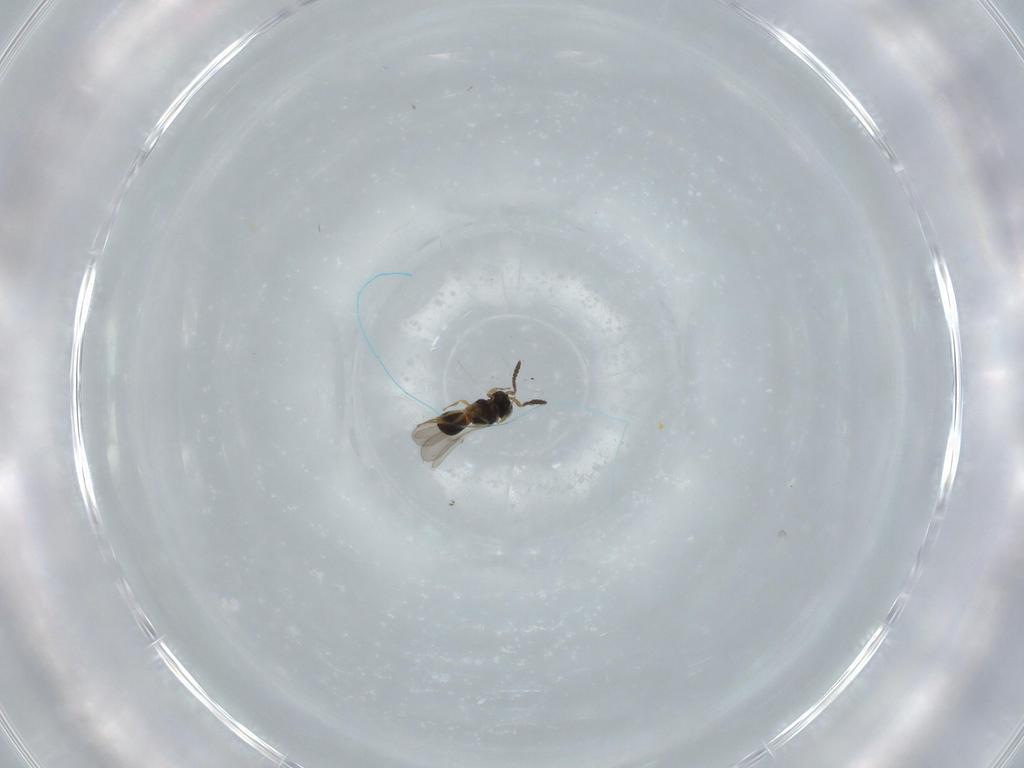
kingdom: Animalia
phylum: Arthropoda
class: Insecta
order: Hymenoptera
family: Scelionidae
